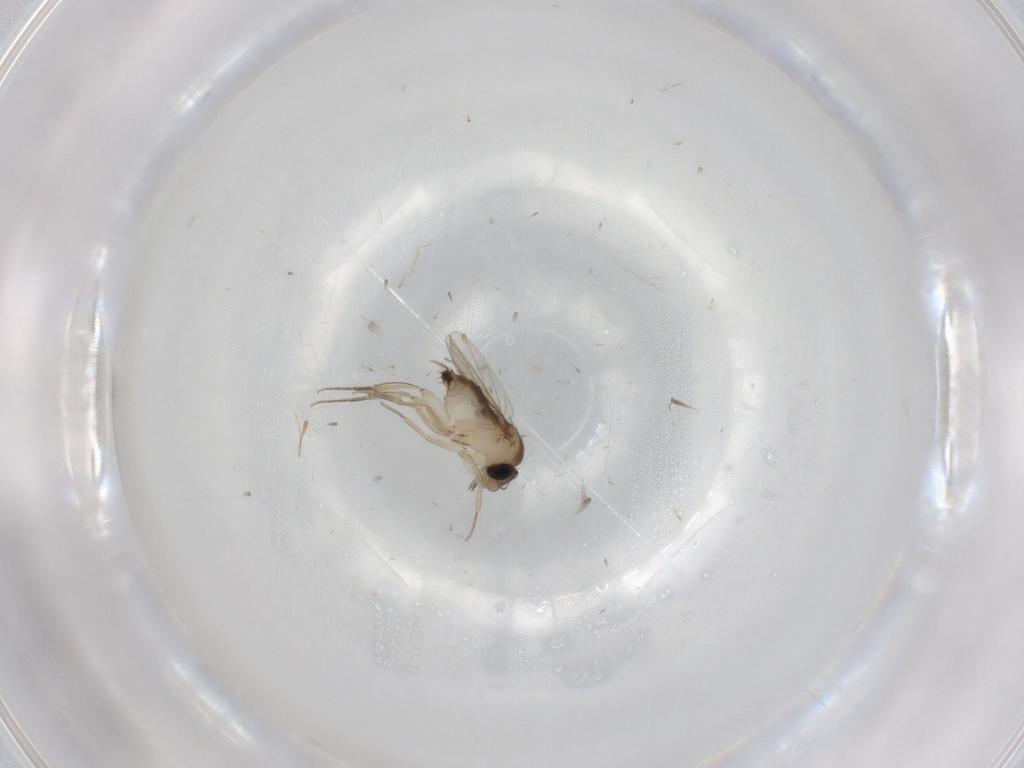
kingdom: Animalia
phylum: Arthropoda
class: Insecta
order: Diptera
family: Phoridae
